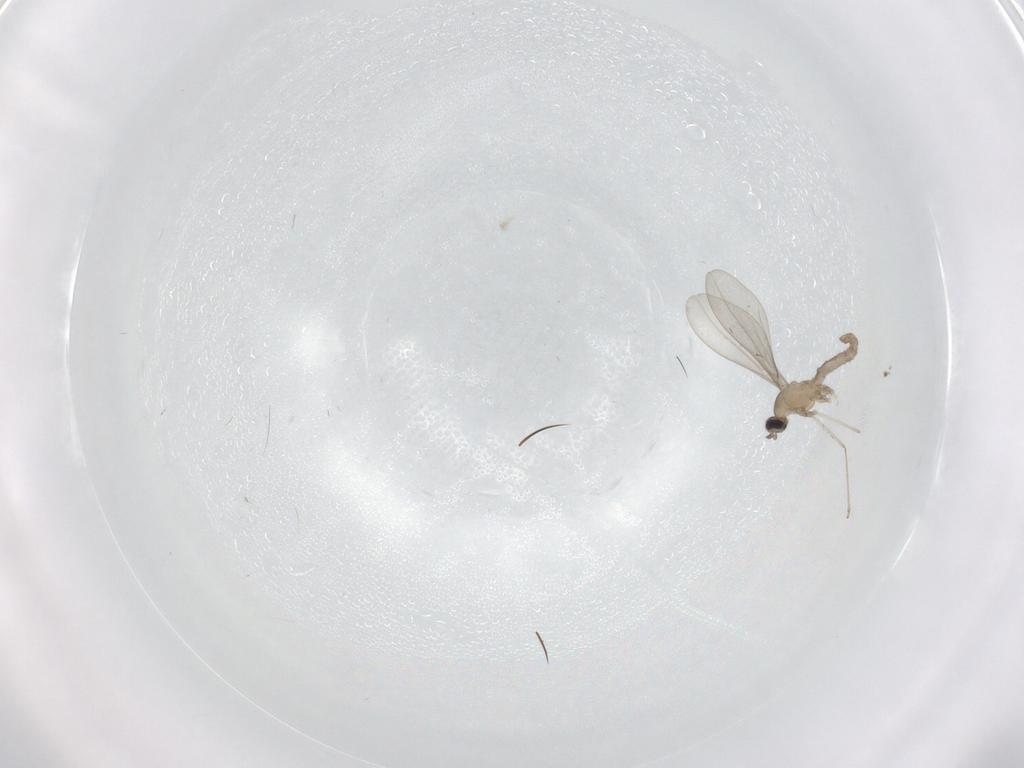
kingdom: Animalia
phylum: Arthropoda
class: Insecta
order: Diptera
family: Cecidomyiidae
